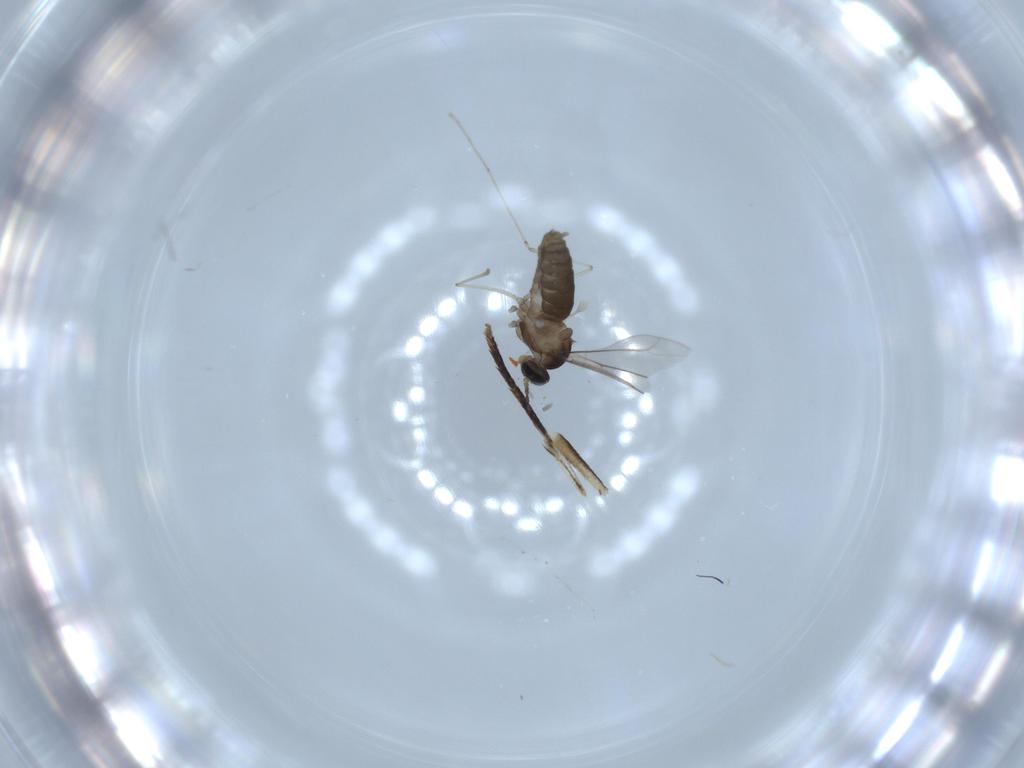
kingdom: Animalia
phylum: Arthropoda
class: Insecta
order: Diptera
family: Cecidomyiidae
